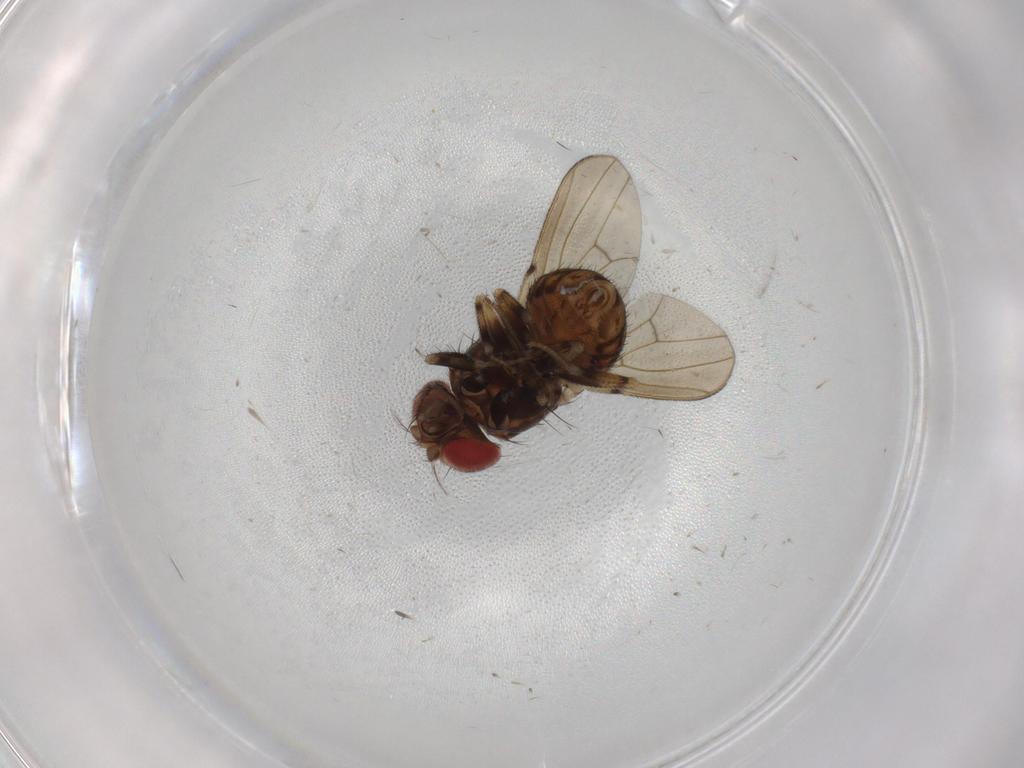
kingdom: Animalia
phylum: Arthropoda
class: Insecta
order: Diptera
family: Drosophilidae
